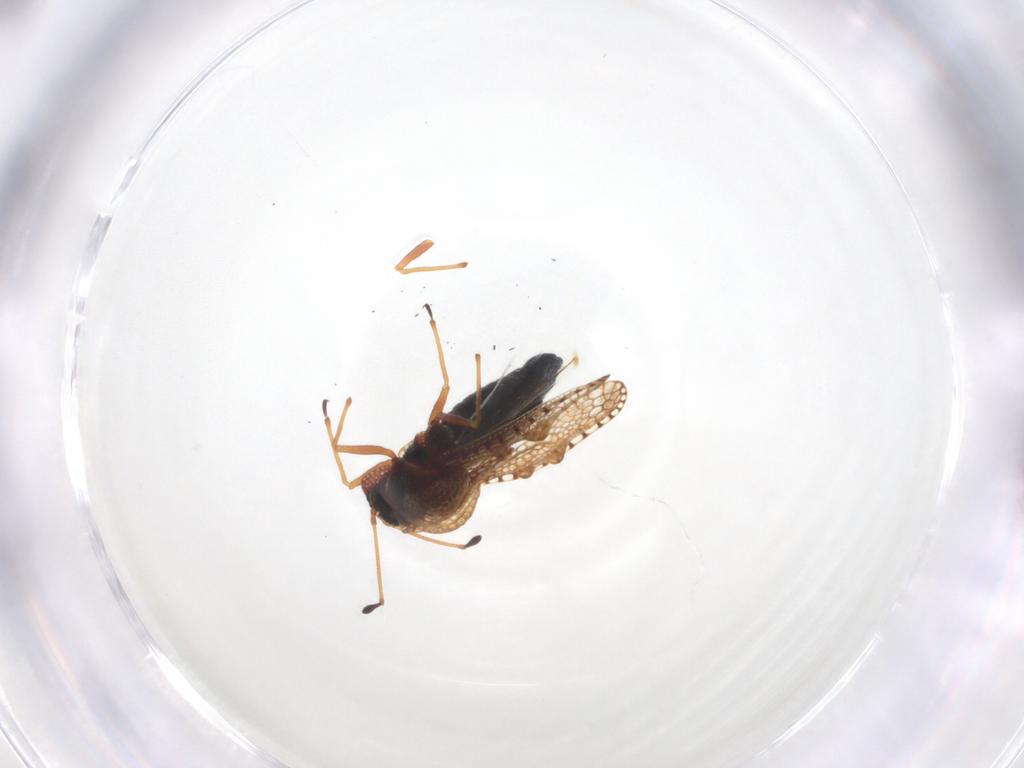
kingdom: Animalia
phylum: Arthropoda
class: Insecta
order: Hemiptera
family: Tingidae
